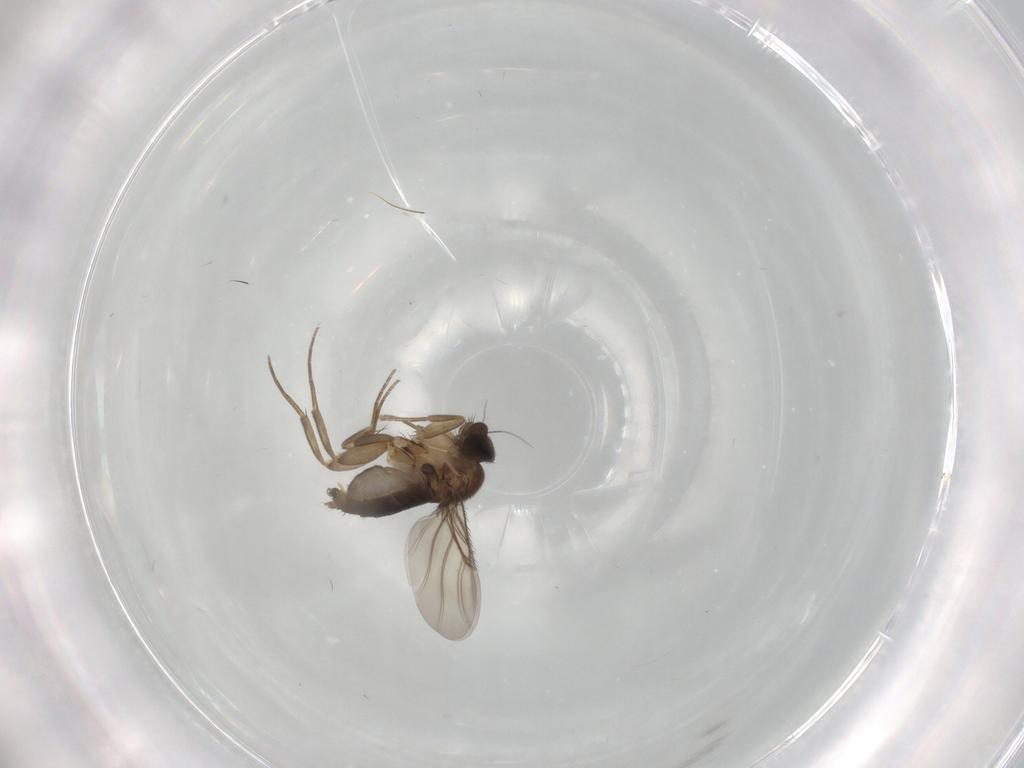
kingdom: Animalia
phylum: Arthropoda
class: Insecta
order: Diptera
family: Phoridae
